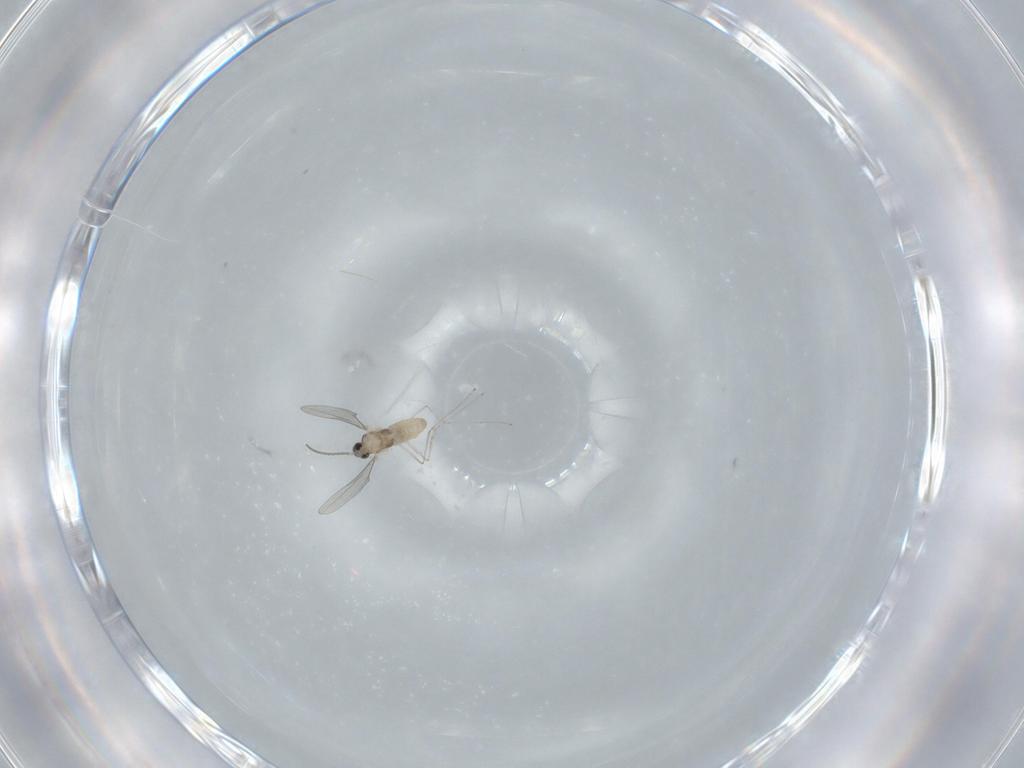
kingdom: Animalia
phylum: Arthropoda
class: Insecta
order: Diptera
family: Cecidomyiidae
